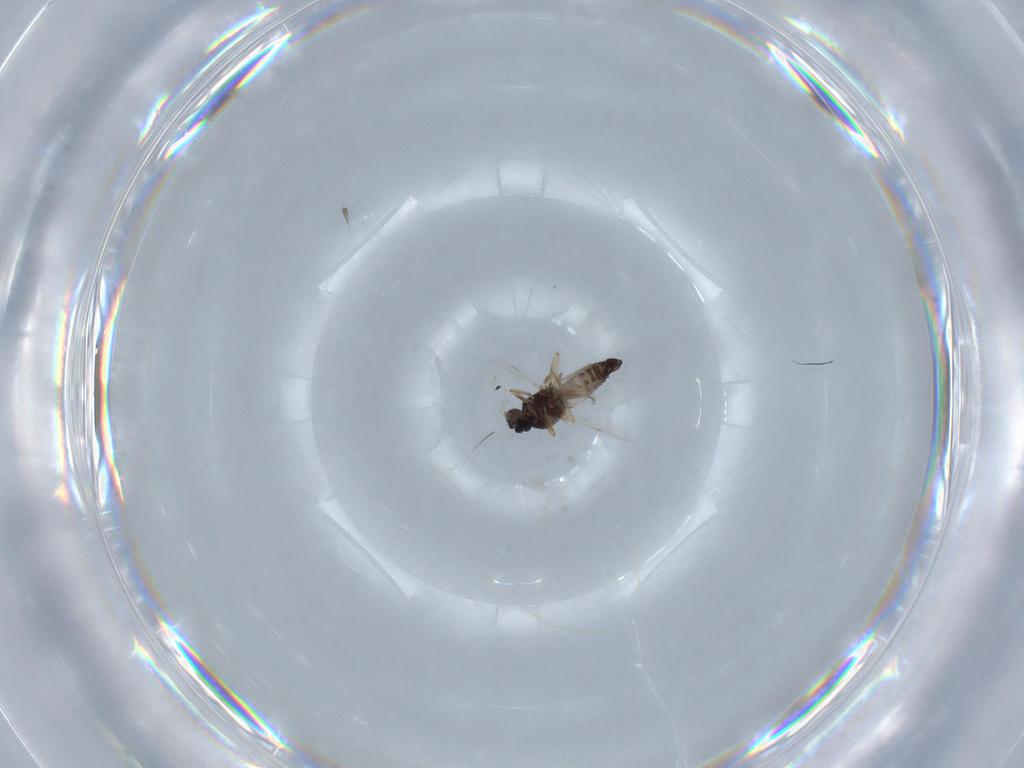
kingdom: Animalia
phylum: Arthropoda
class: Insecta
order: Diptera
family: Ceratopogonidae
